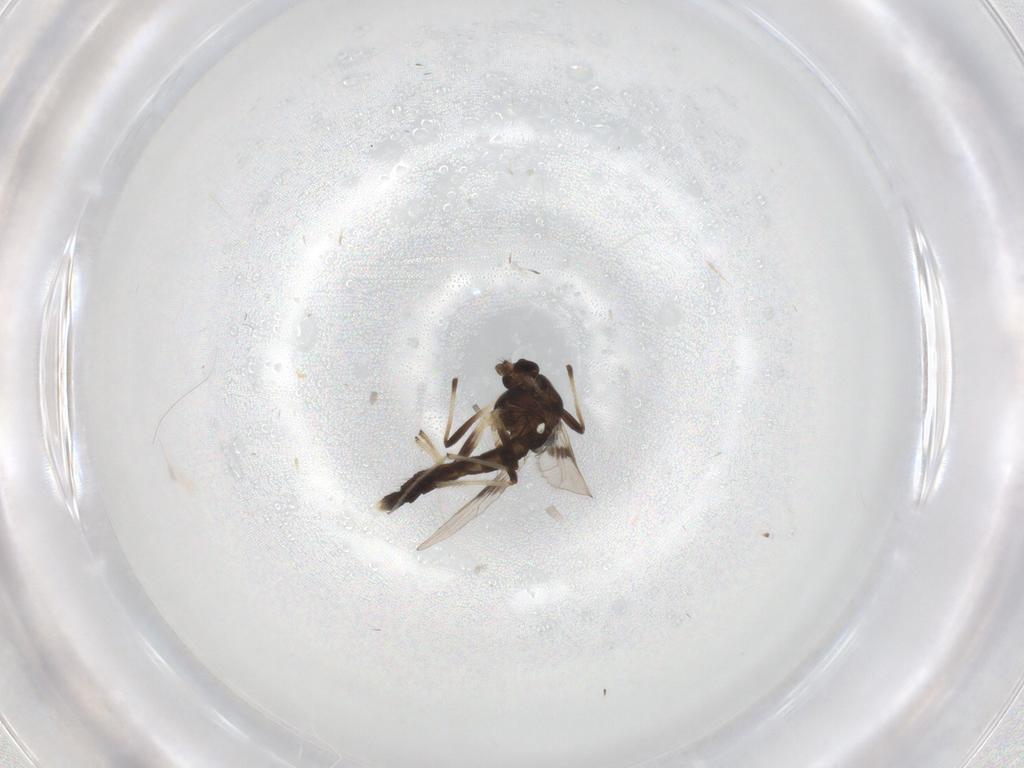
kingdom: Animalia
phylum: Arthropoda
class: Insecta
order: Diptera
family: Chironomidae
